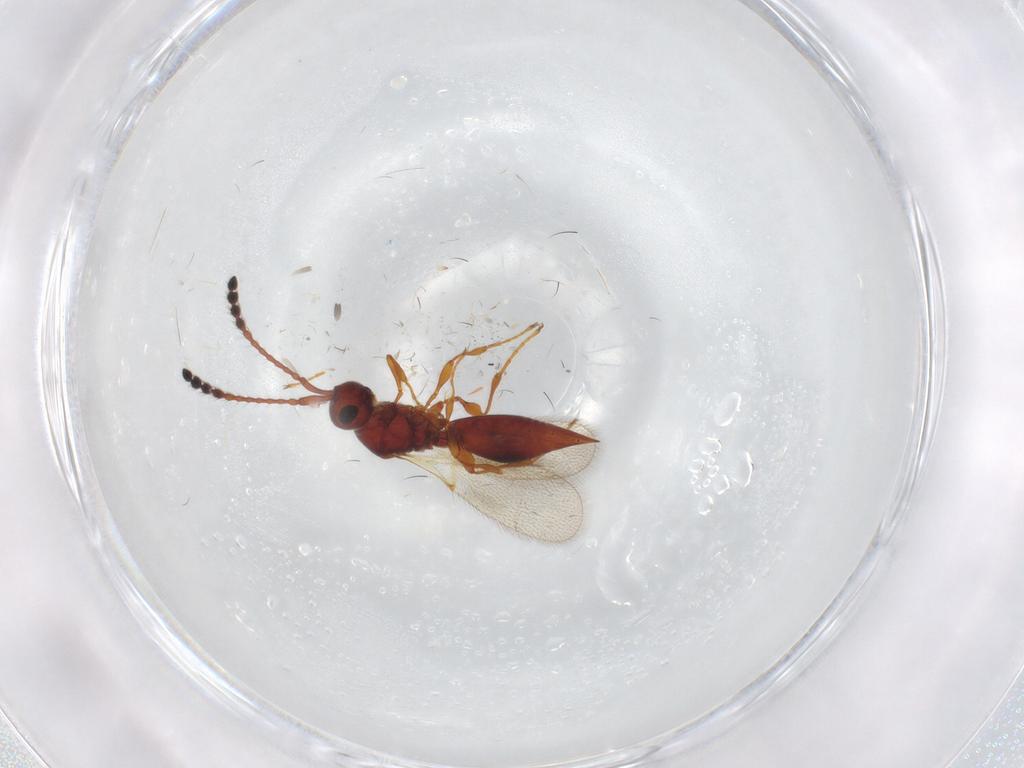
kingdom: Animalia
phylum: Arthropoda
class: Insecta
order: Hymenoptera
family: Diapriidae
